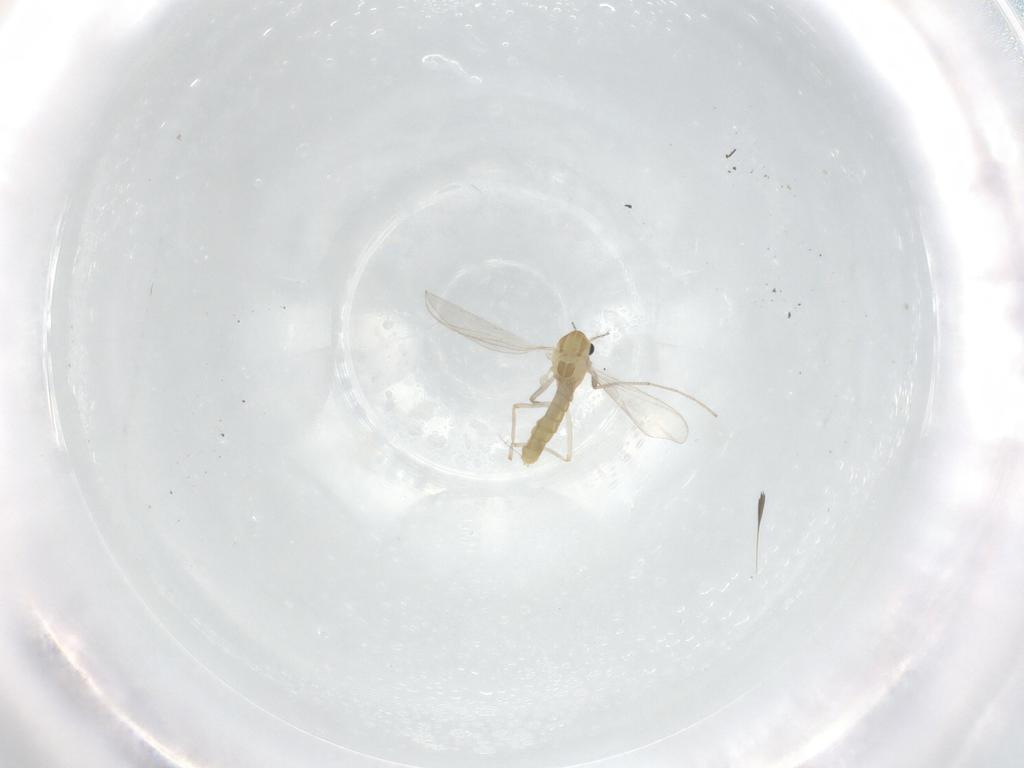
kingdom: Animalia
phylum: Arthropoda
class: Insecta
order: Diptera
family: Chironomidae
